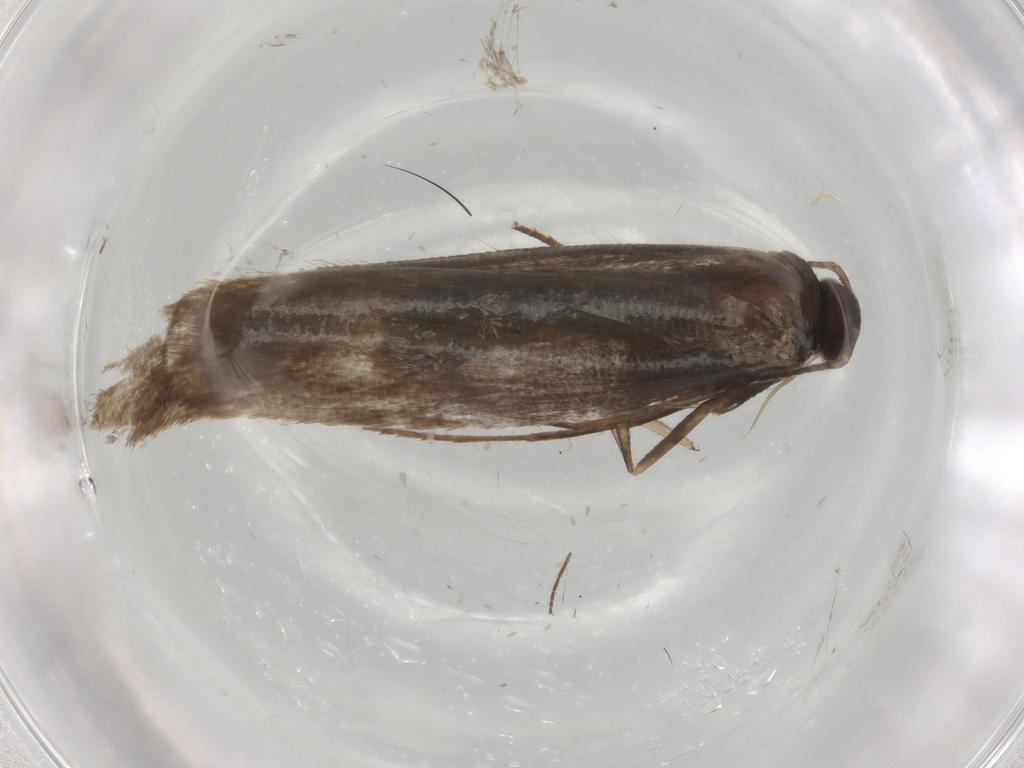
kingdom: Animalia
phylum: Arthropoda
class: Insecta
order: Lepidoptera
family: Argyresthiidae
